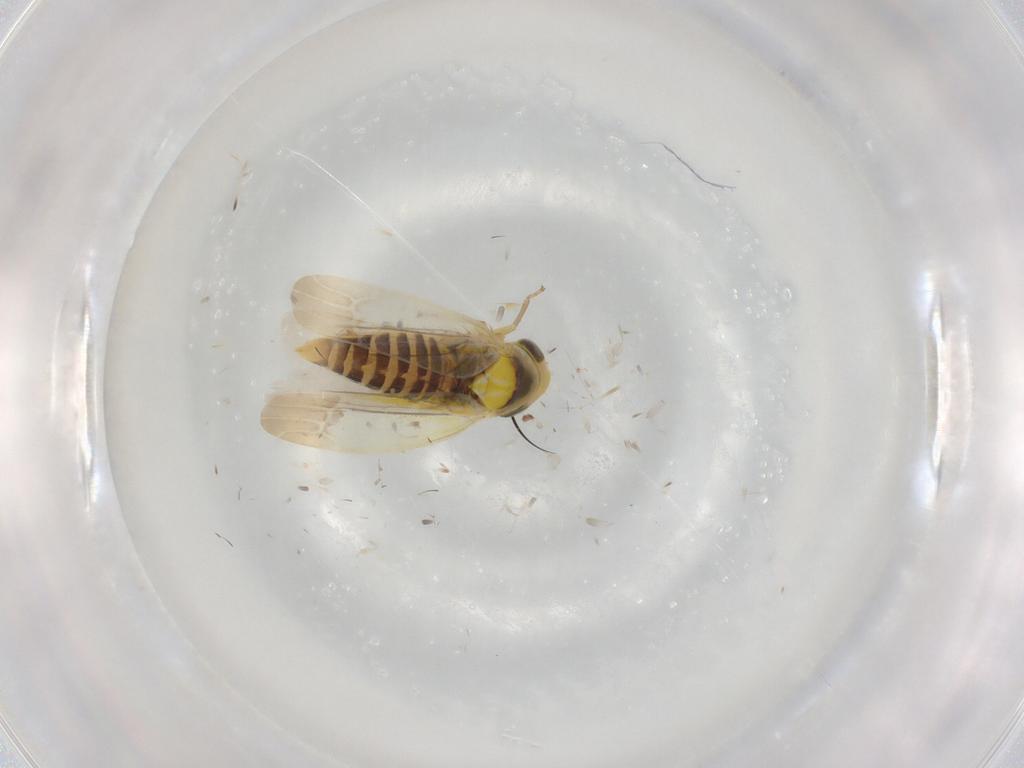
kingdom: Animalia
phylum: Arthropoda
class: Insecta
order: Hemiptera
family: Cicadellidae
